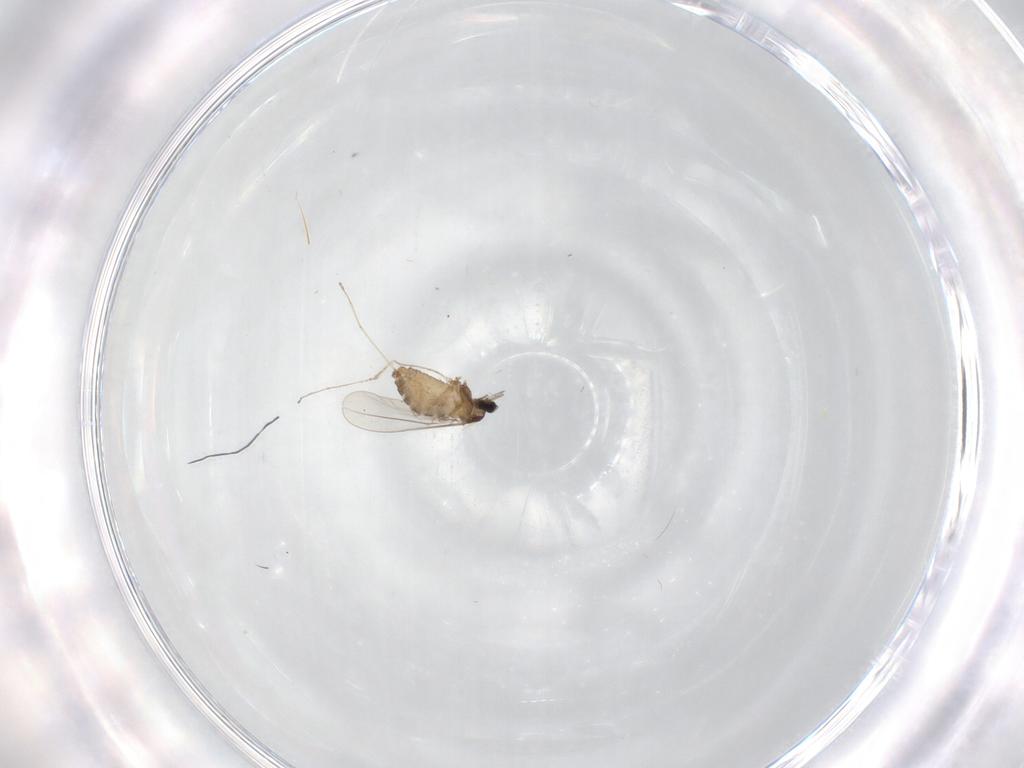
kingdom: Animalia
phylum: Arthropoda
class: Insecta
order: Diptera
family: Cecidomyiidae
